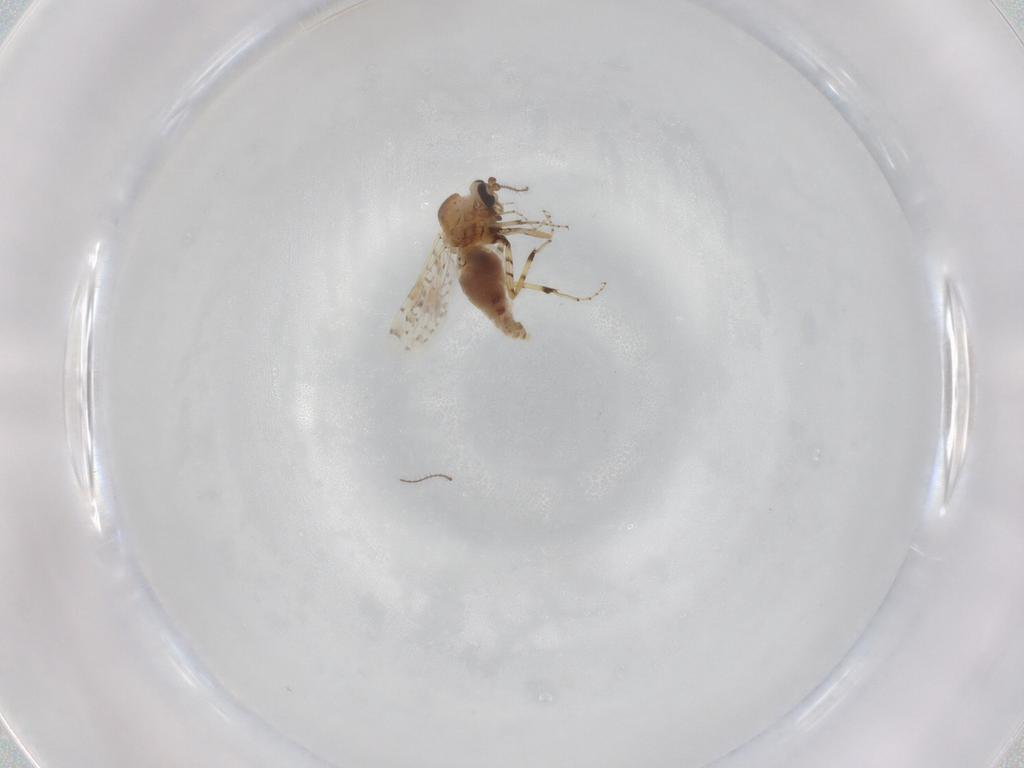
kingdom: Animalia
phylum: Arthropoda
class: Insecta
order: Diptera
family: Ceratopogonidae
